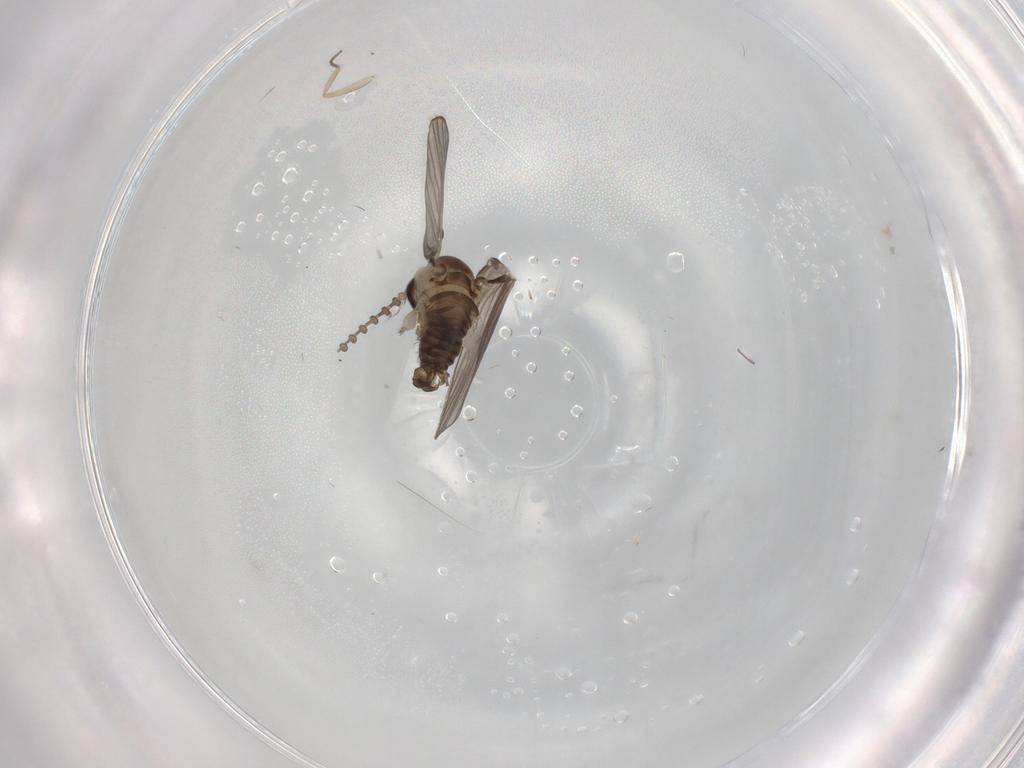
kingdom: Animalia
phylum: Arthropoda
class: Insecta
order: Diptera
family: Psychodidae
